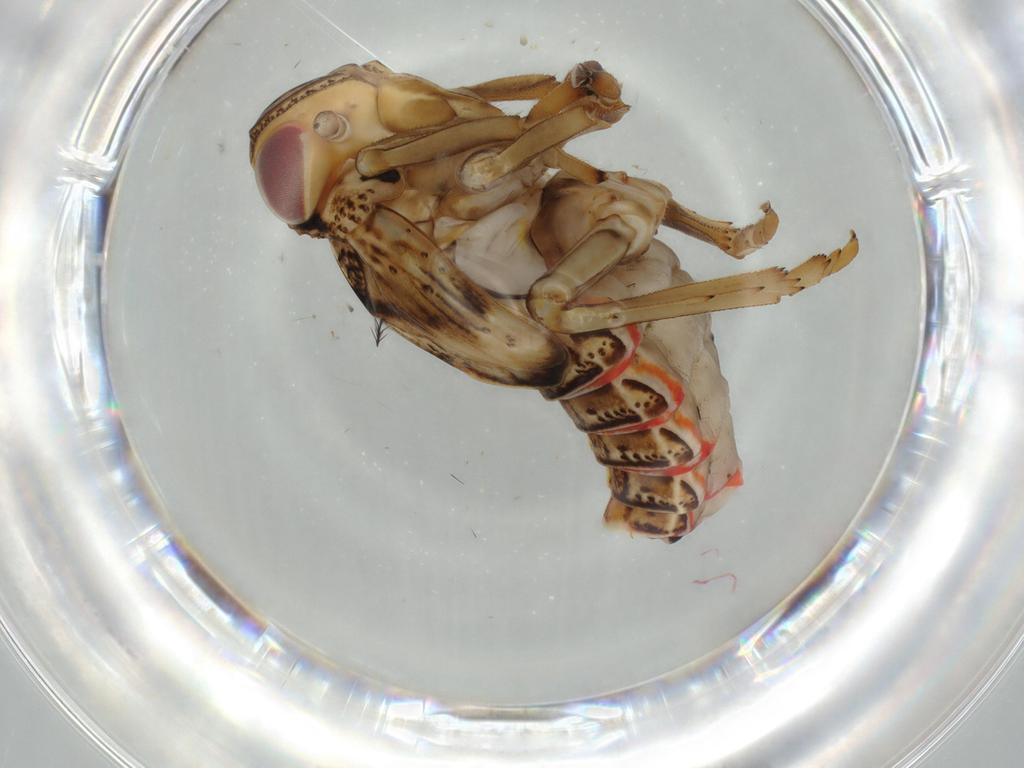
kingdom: Animalia
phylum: Arthropoda
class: Insecta
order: Hemiptera
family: Issidae
